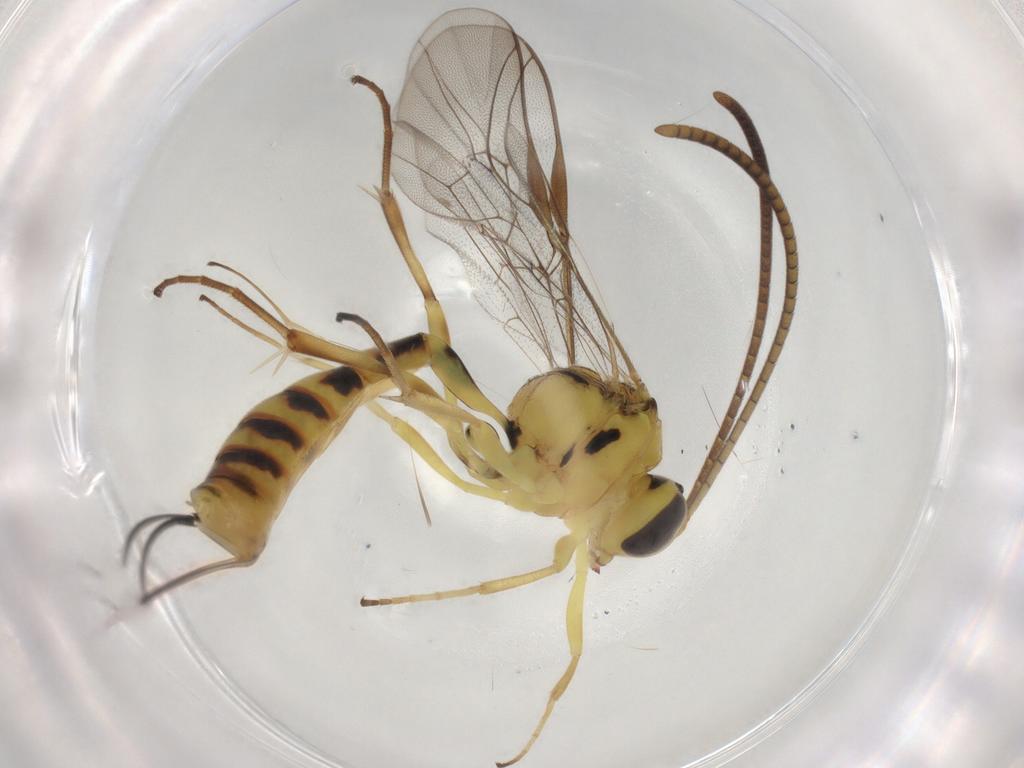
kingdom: Animalia
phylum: Arthropoda
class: Insecta
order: Hymenoptera
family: Ichneumonidae
